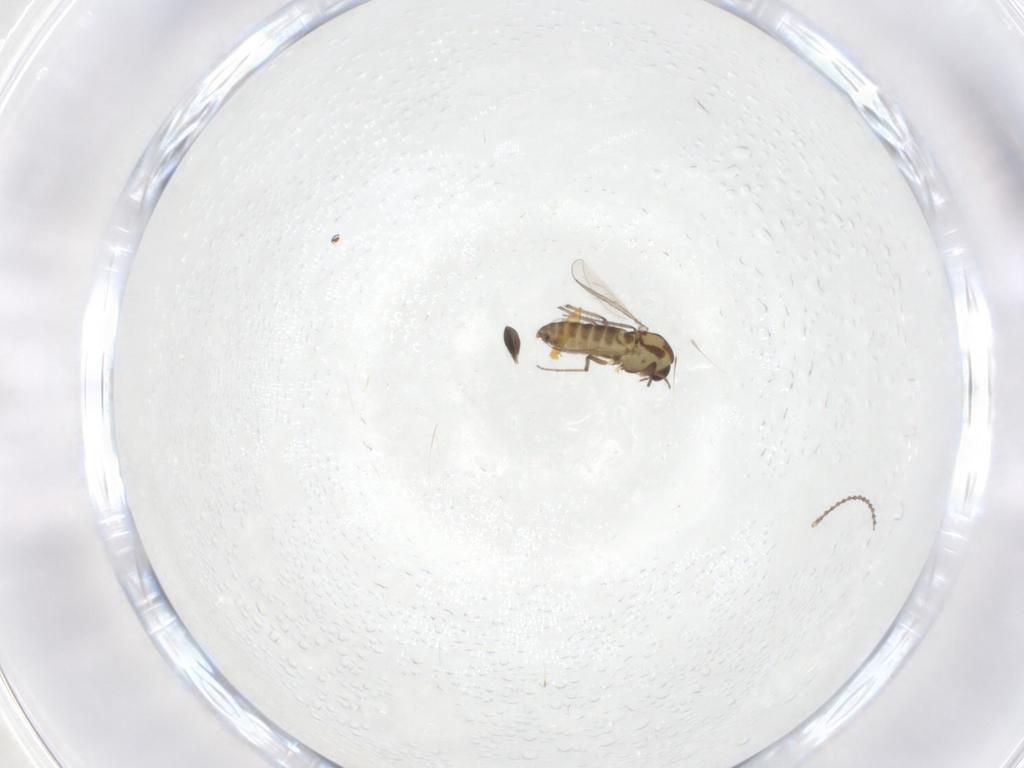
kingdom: Animalia
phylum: Arthropoda
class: Insecta
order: Diptera
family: Chironomidae
